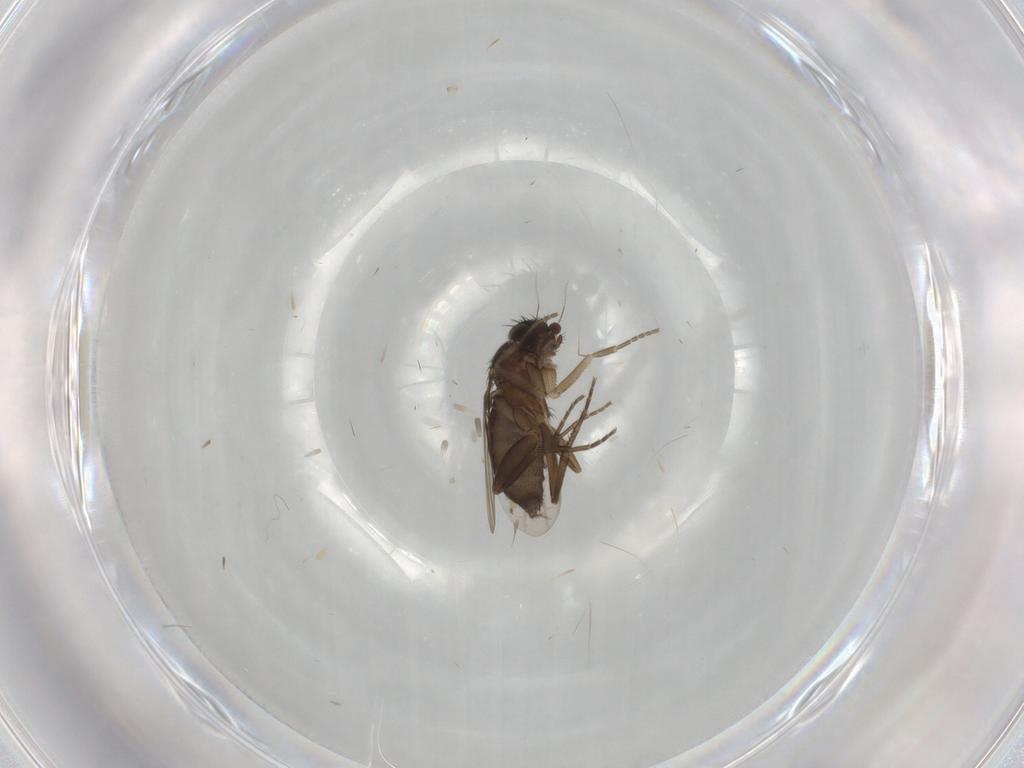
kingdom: Animalia
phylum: Arthropoda
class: Insecta
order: Diptera
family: Phoridae
